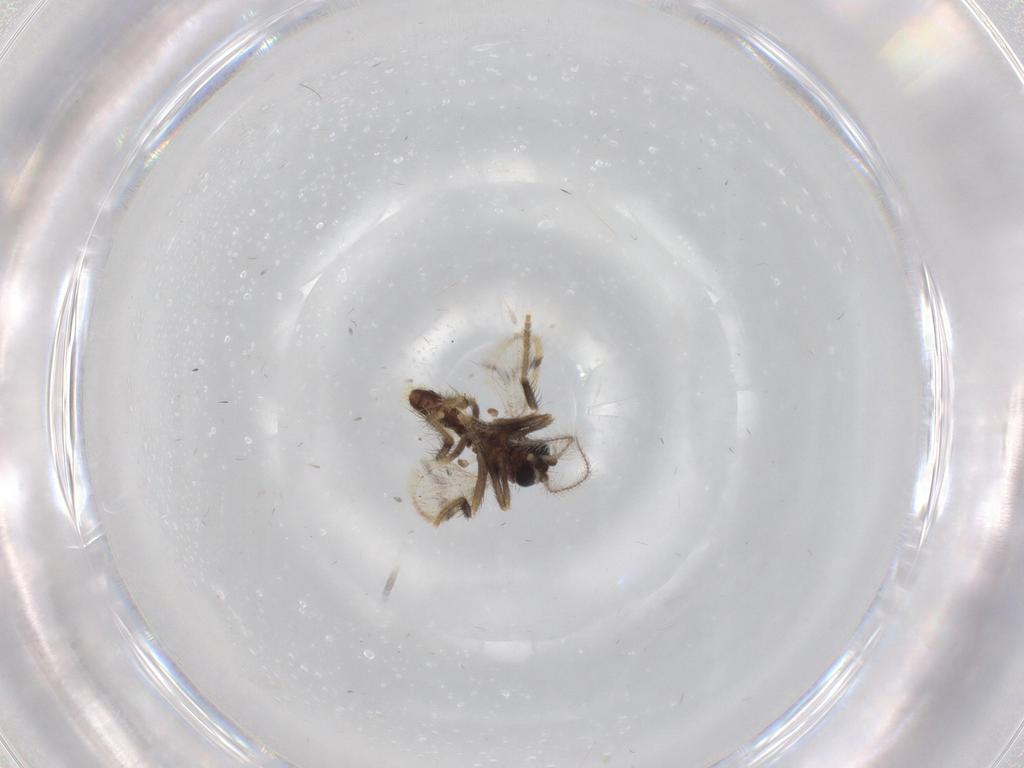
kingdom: Animalia
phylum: Arthropoda
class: Insecta
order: Diptera
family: Corethrellidae
